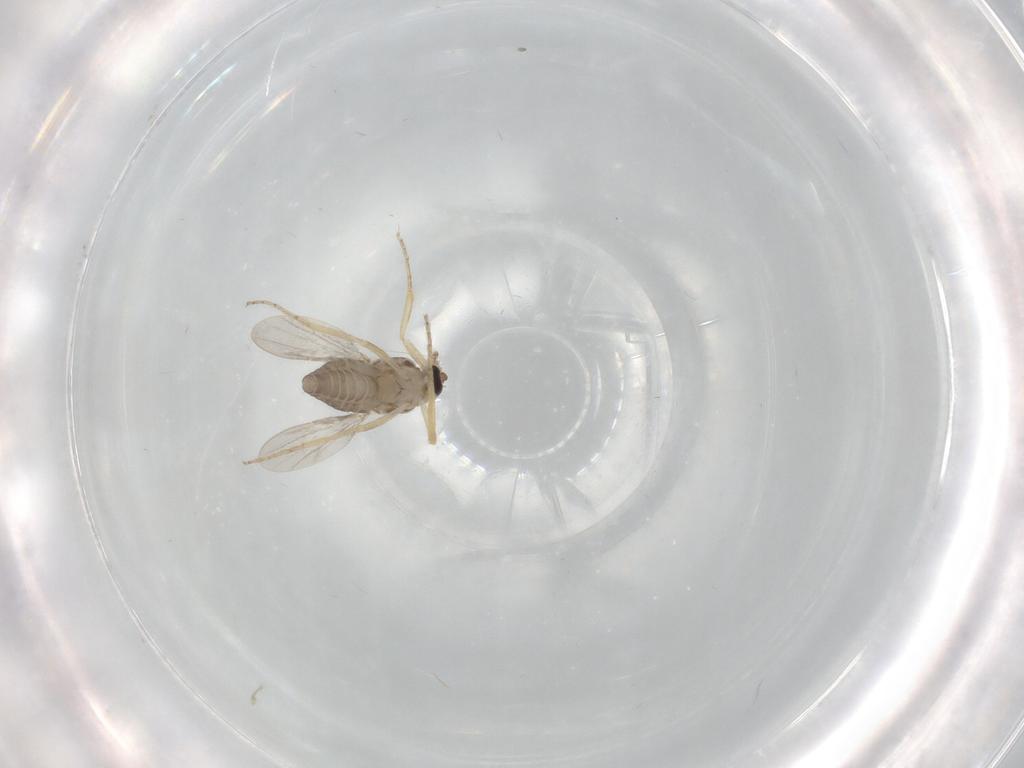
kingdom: Animalia
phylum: Arthropoda
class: Insecta
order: Diptera
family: Ceratopogonidae
